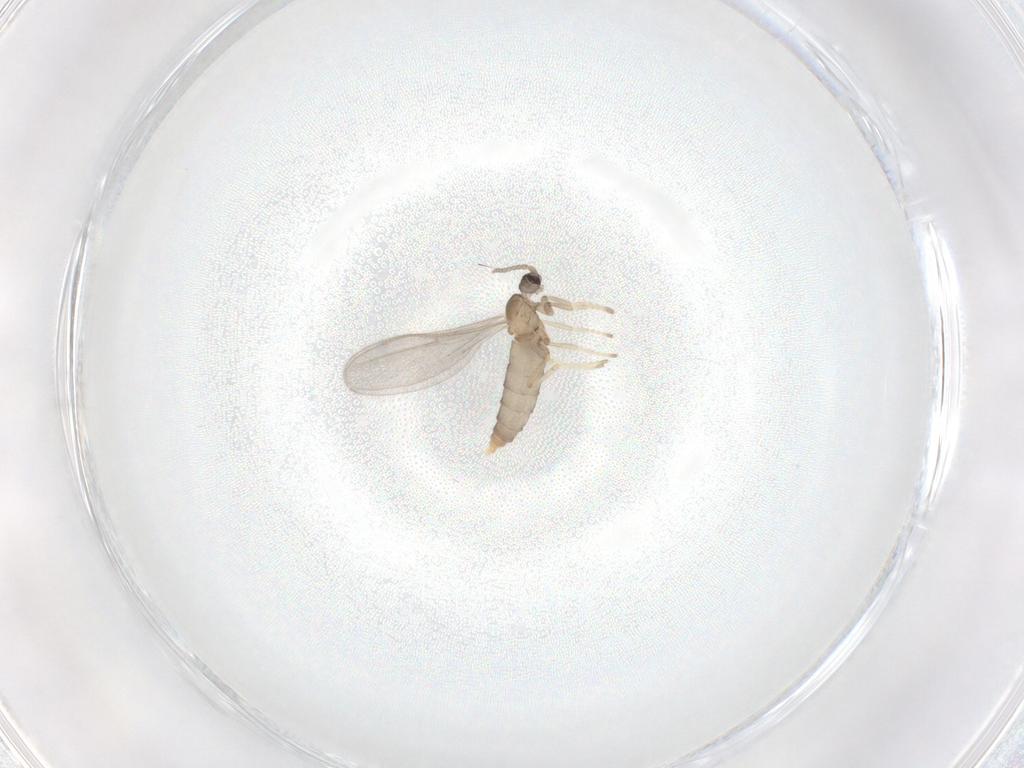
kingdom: Animalia
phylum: Arthropoda
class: Insecta
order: Diptera
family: Cecidomyiidae
